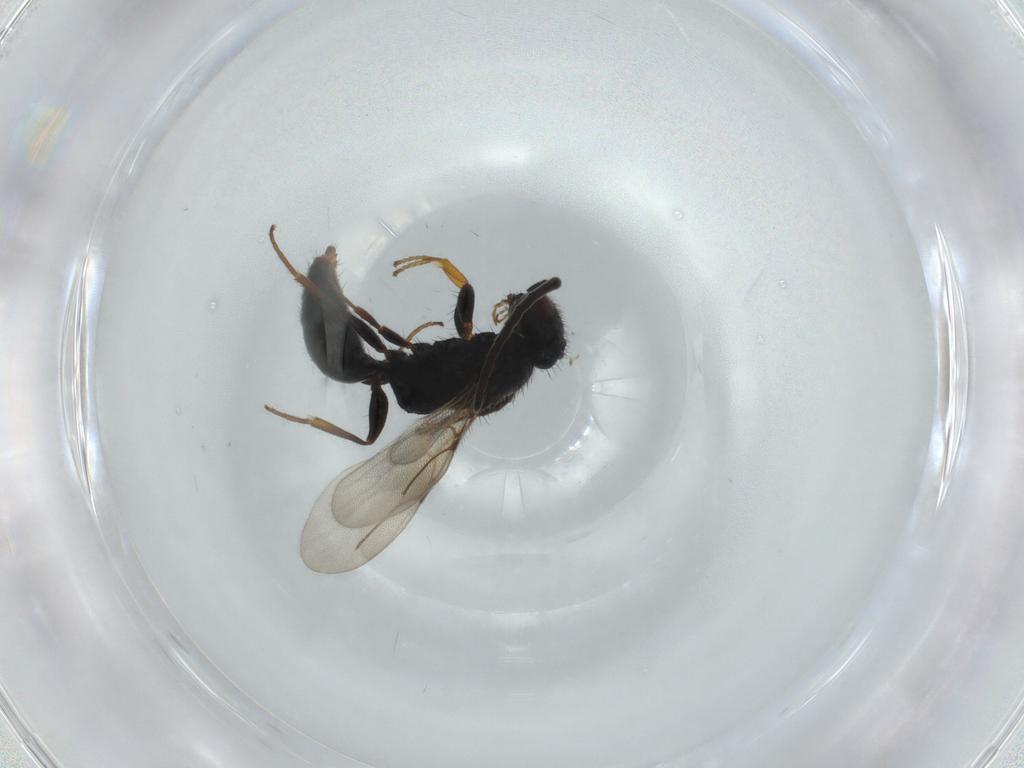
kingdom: Animalia
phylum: Arthropoda
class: Insecta
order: Hymenoptera
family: Bethylidae
